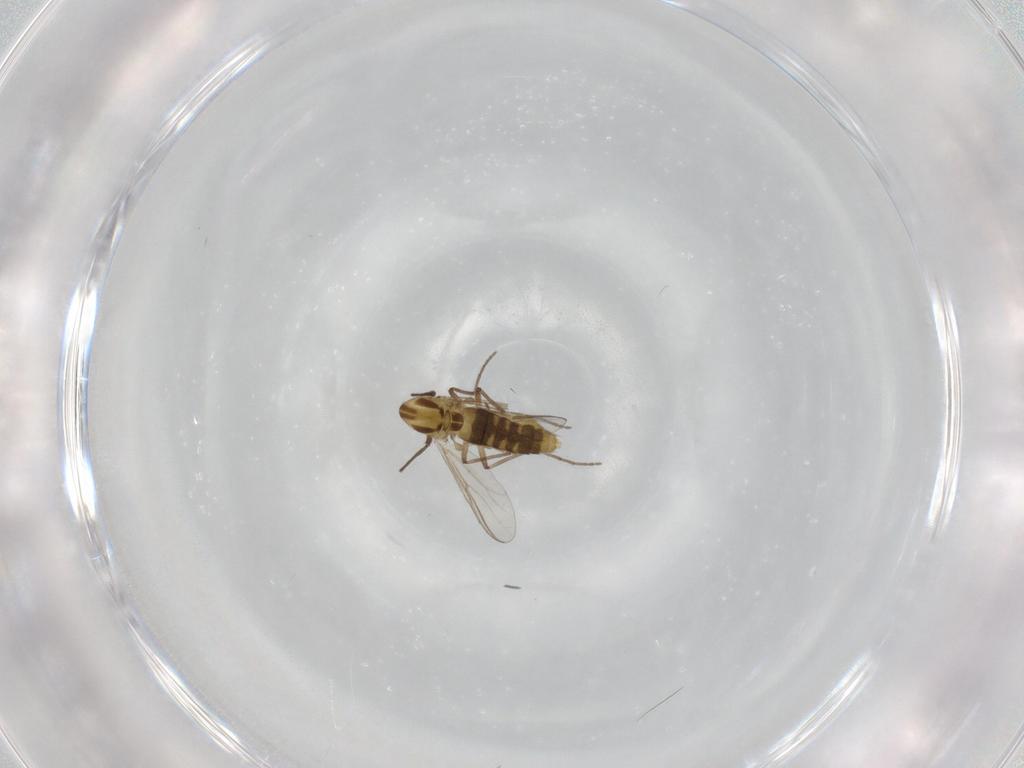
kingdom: Animalia
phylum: Arthropoda
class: Insecta
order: Diptera
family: Chironomidae
